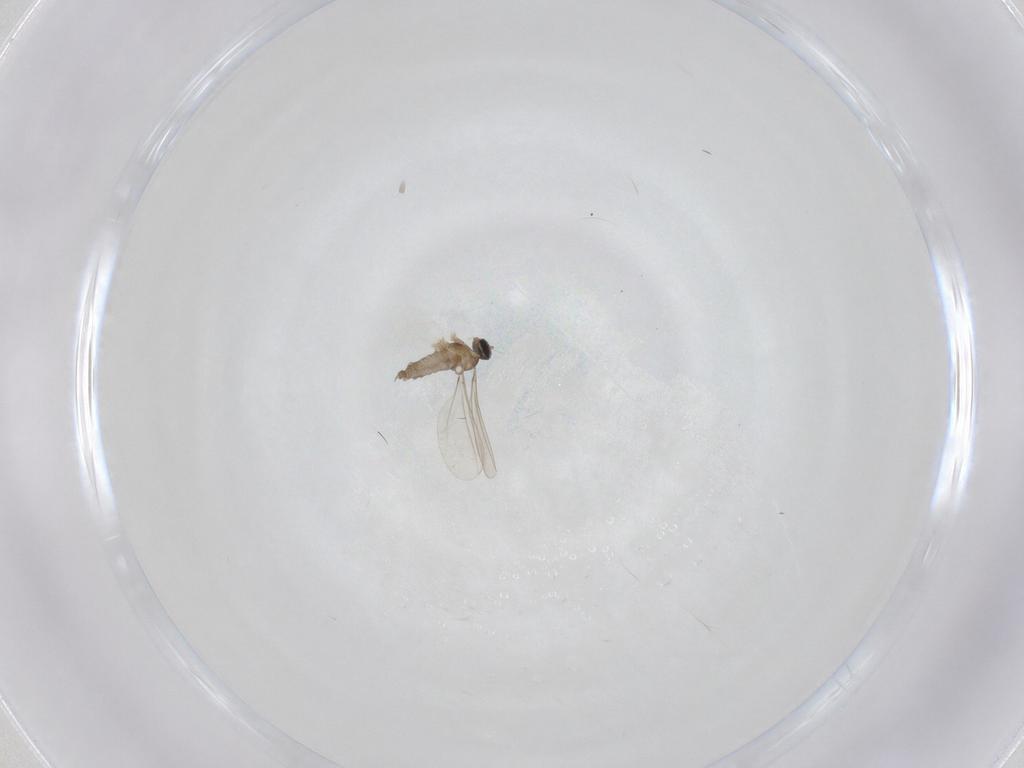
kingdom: Animalia
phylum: Arthropoda
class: Insecta
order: Diptera
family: Cecidomyiidae
